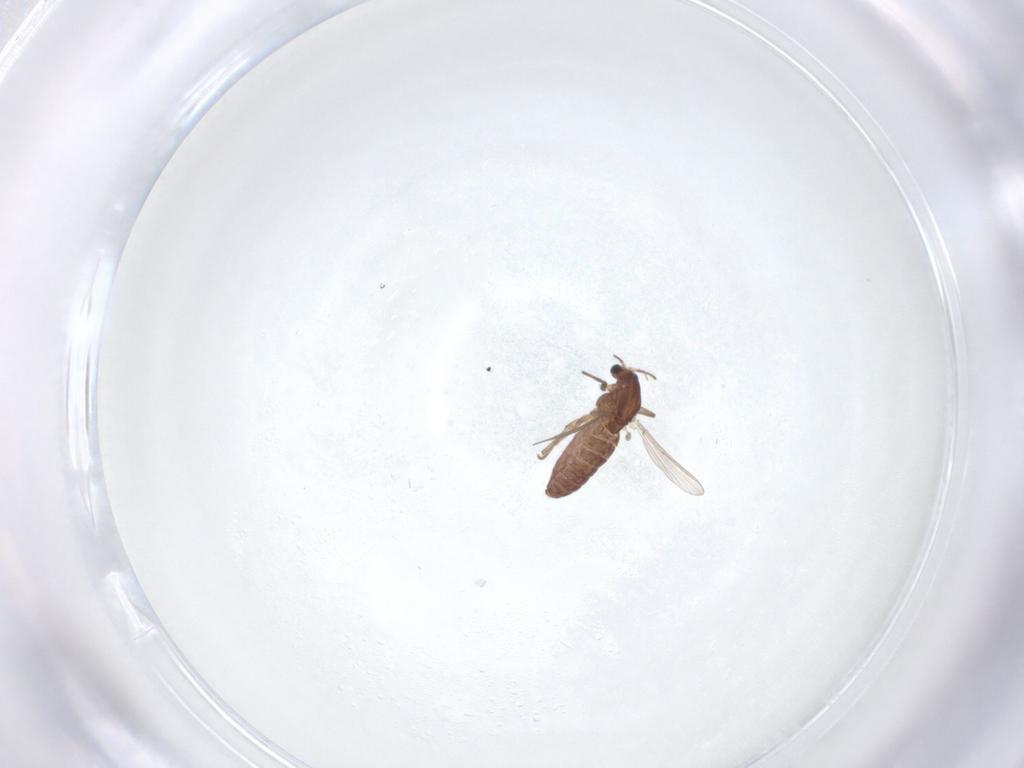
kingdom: Animalia
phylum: Arthropoda
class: Insecta
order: Diptera
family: Chironomidae
